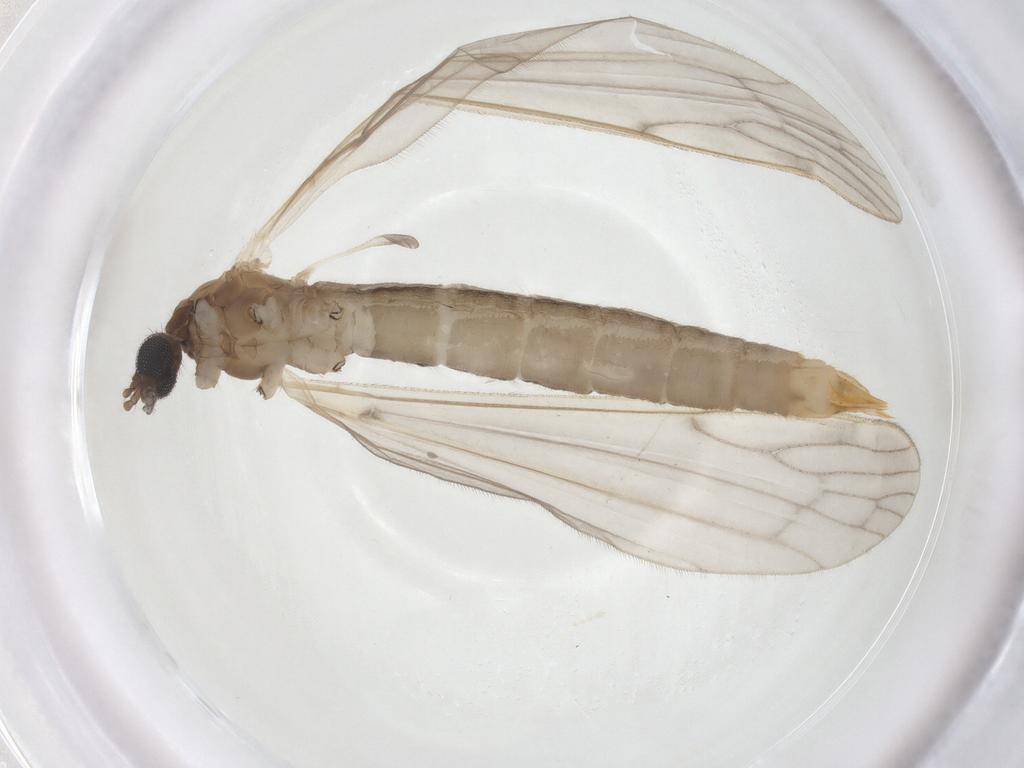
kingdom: Animalia
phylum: Arthropoda
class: Insecta
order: Diptera
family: Limoniidae
